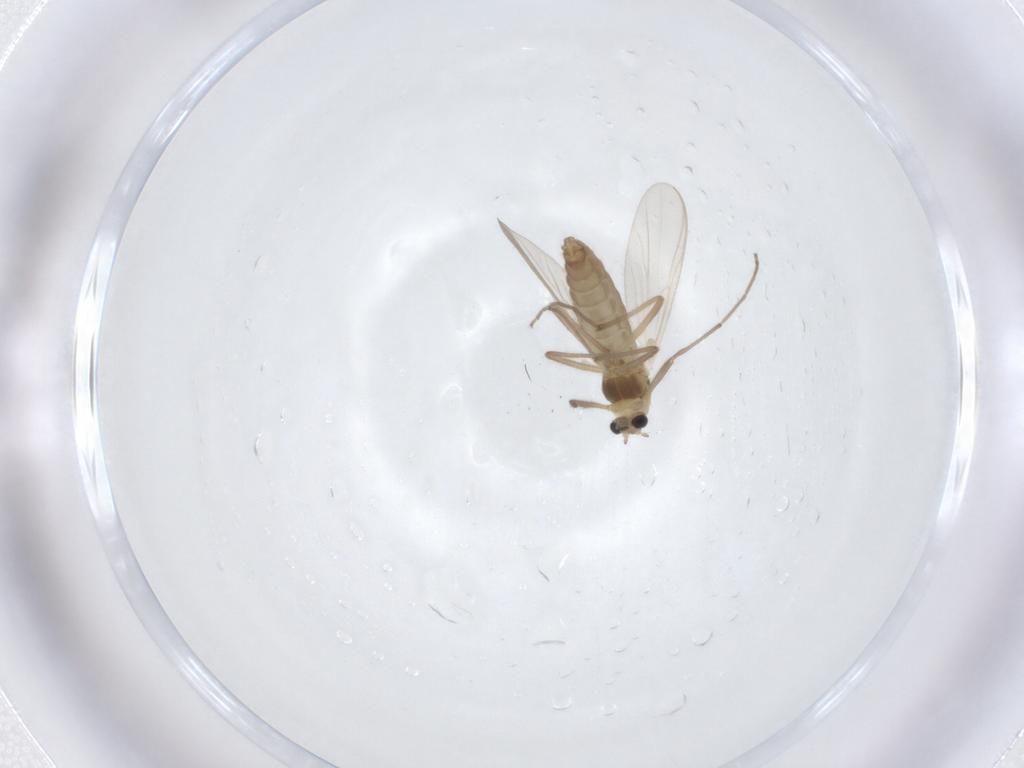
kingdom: Animalia
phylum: Arthropoda
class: Insecta
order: Diptera
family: Chironomidae
